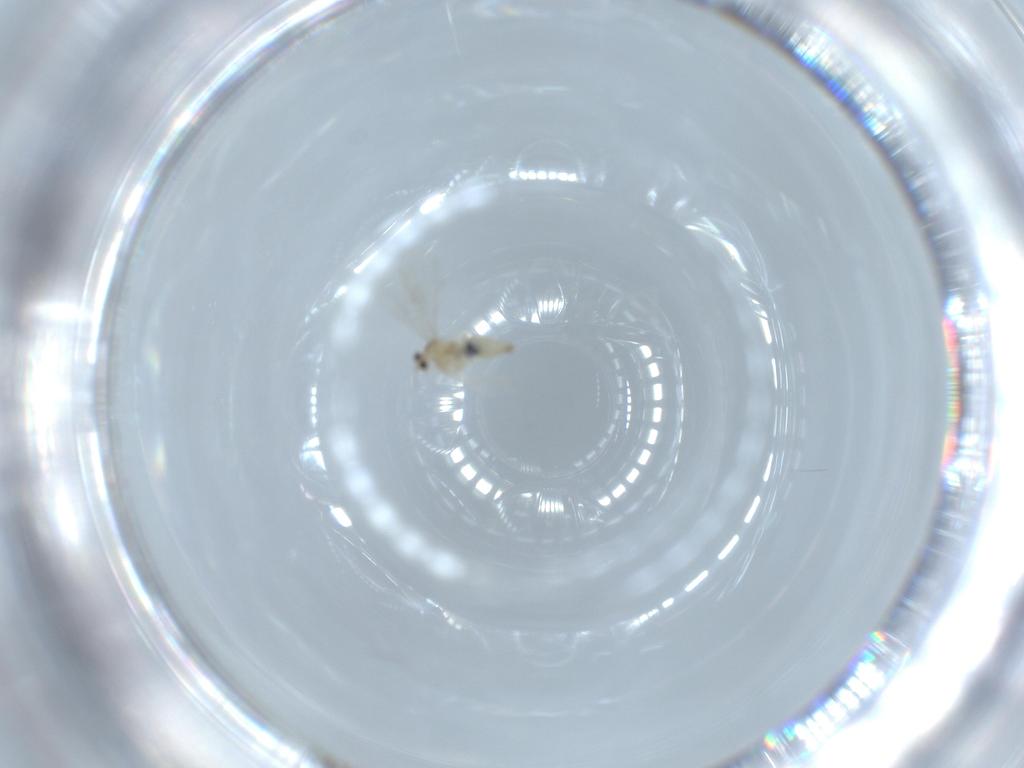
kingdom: Animalia
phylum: Arthropoda
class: Insecta
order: Diptera
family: Cecidomyiidae
